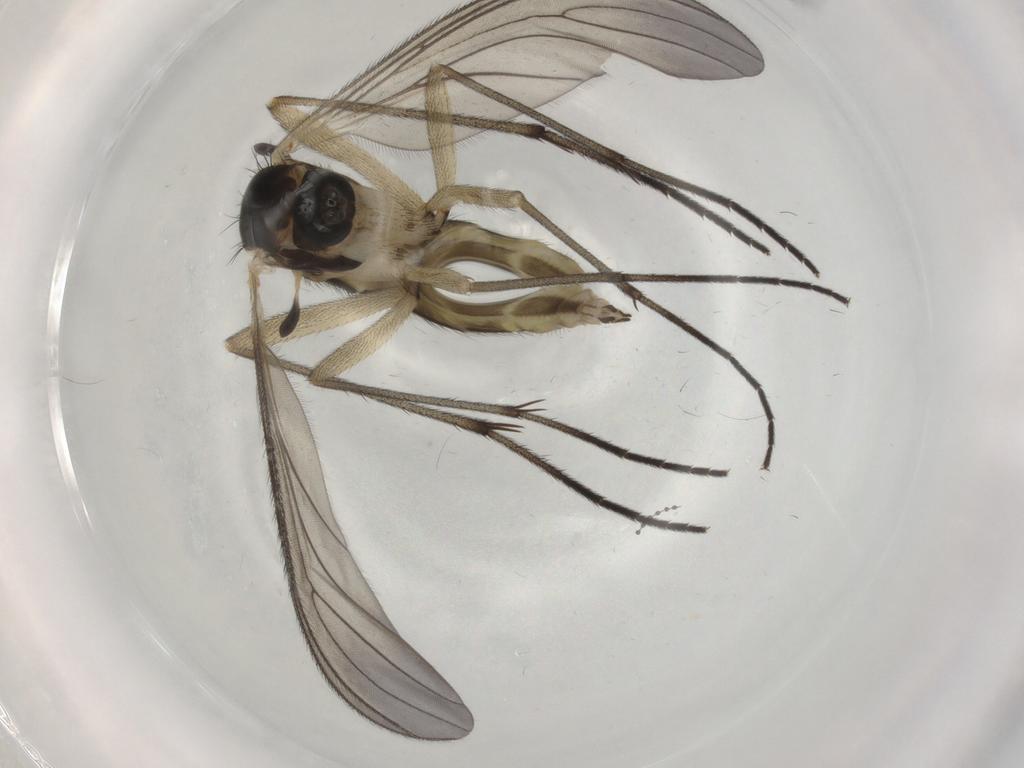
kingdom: Animalia
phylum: Arthropoda
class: Insecta
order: Diptera
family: Sciaridae
